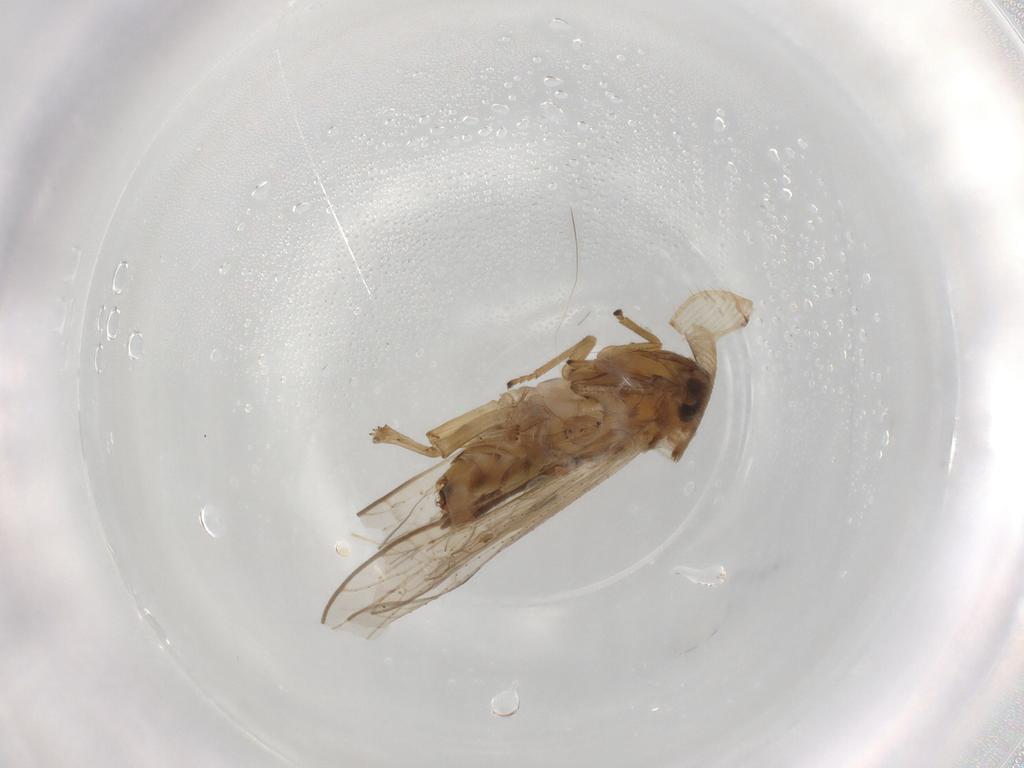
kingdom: Animalia
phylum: Arthropoda
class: Insecta
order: Hemiptera
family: Delphacidae
